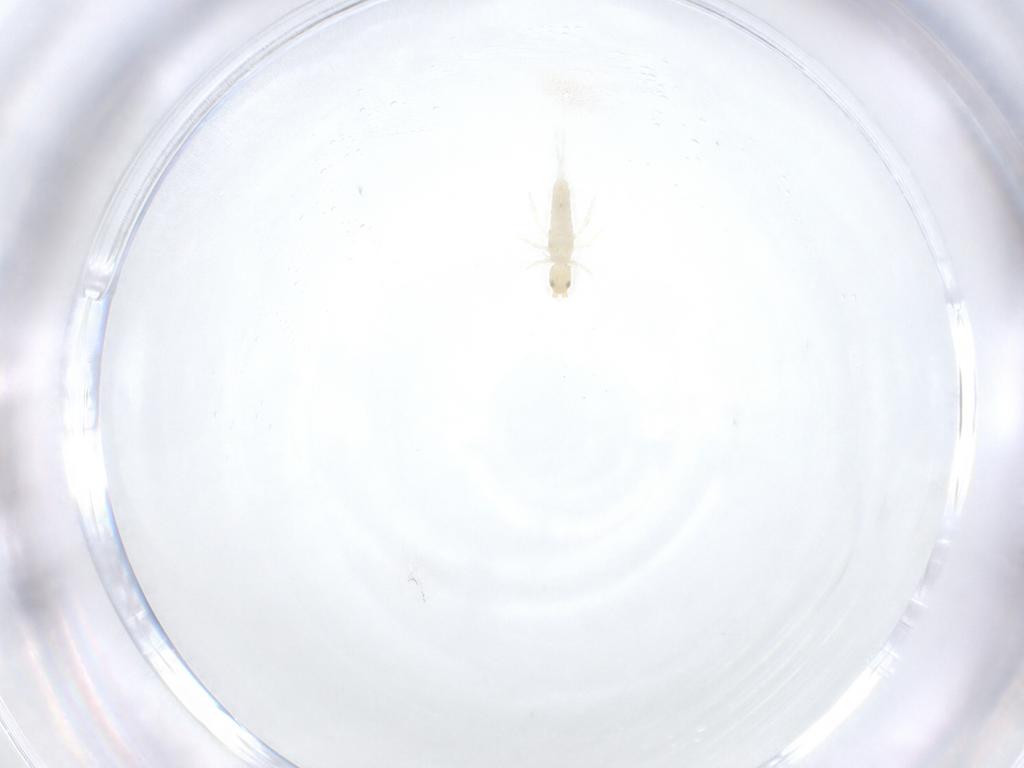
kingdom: Animalia
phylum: Arthropoda
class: Collembola
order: Entomobryomorpha
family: Entomobryidae
